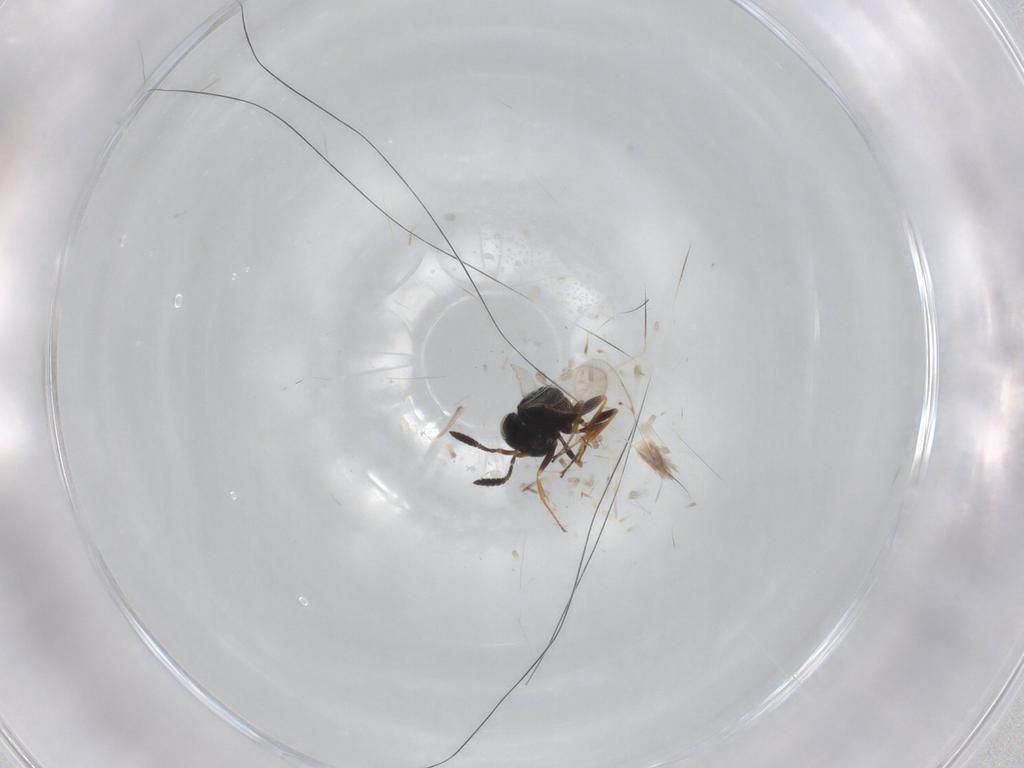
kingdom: Animalia
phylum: Arthropoda
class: Insecta
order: Coleoptera
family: Curculionidae
